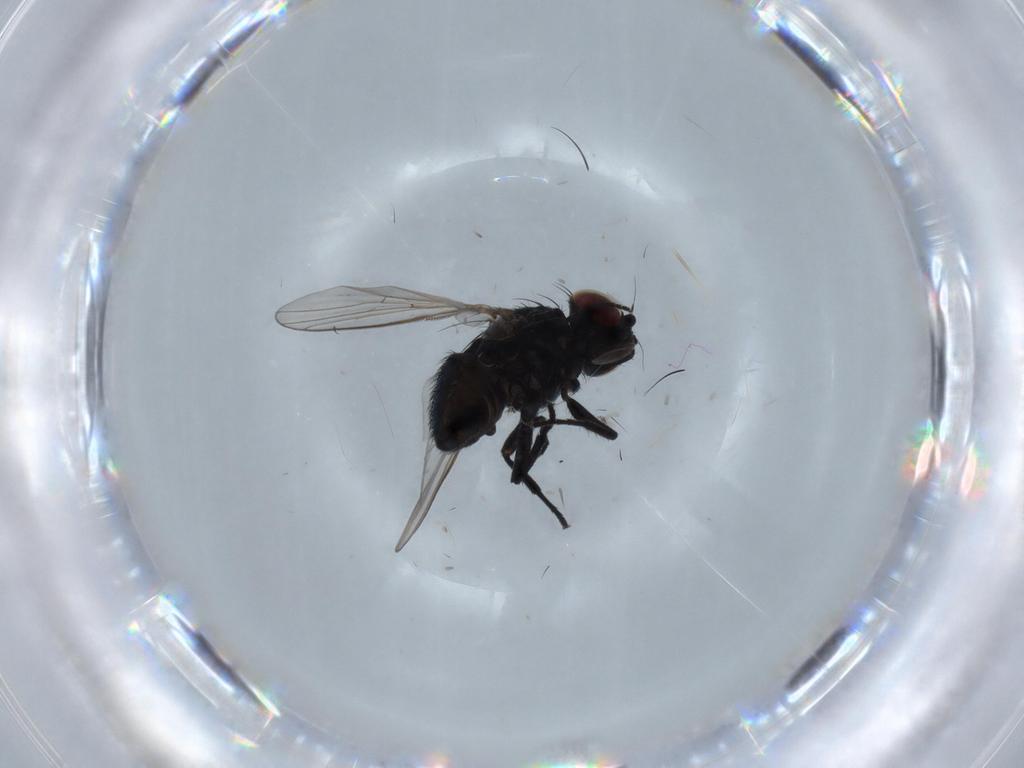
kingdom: Animalia
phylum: Arthropoda
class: Insecta
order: Diptera
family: Agromyzidae
